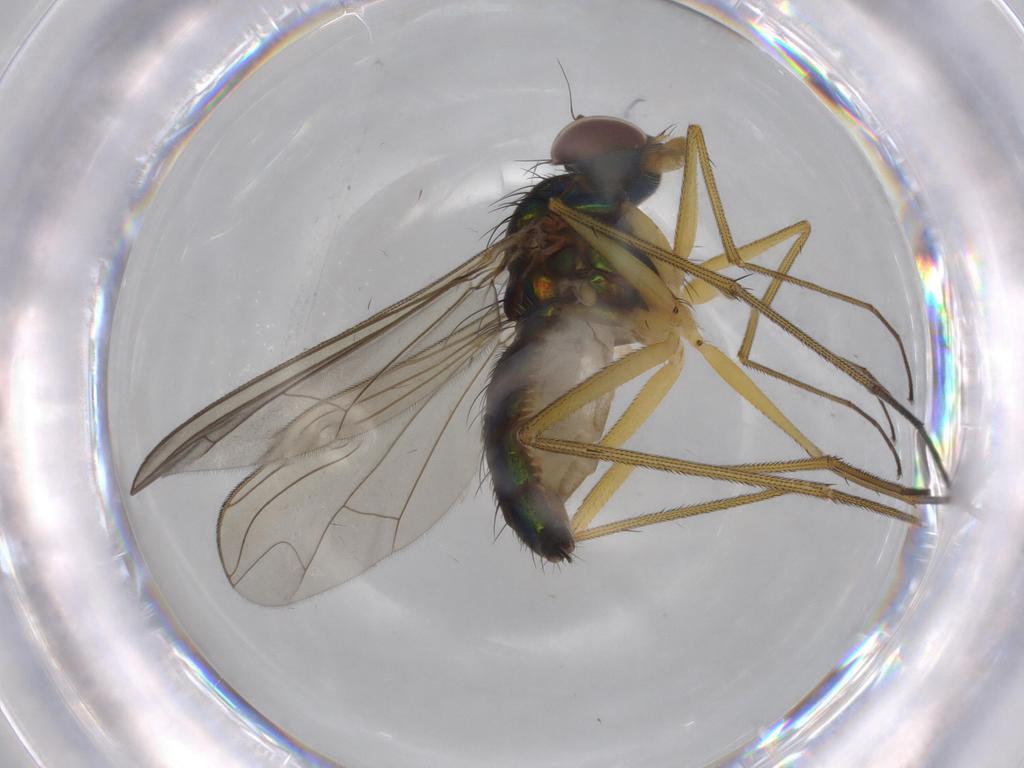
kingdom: Animalia
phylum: Arthropoda
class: Insecta
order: Diptera
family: Dolichopodidae
